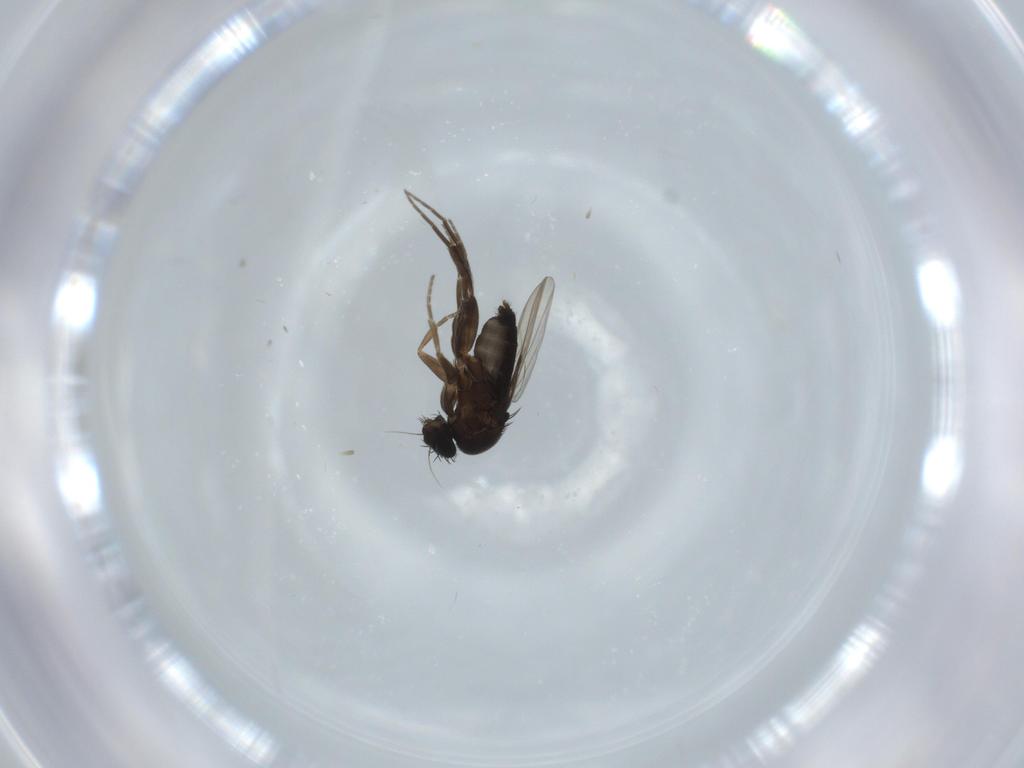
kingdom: Animalia
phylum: Arthropoda
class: Insecta
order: Diptera
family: Phoridae
